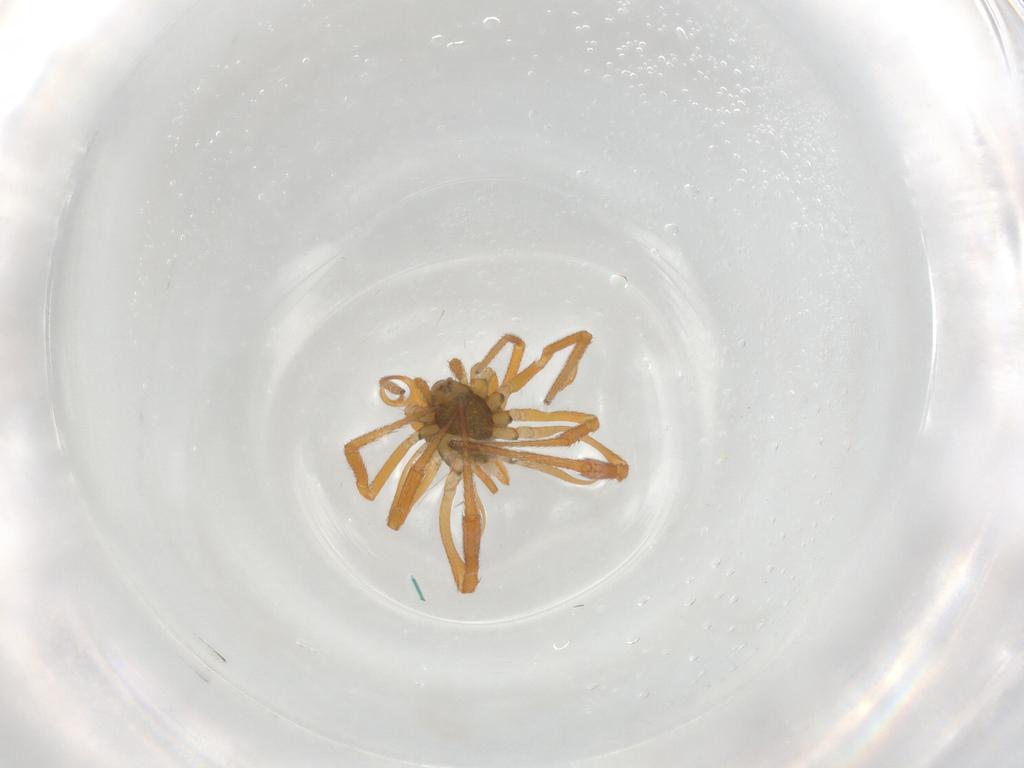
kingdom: Animalia
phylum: Arthropoda
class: Arachnida
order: Araneae
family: Theridiidae
